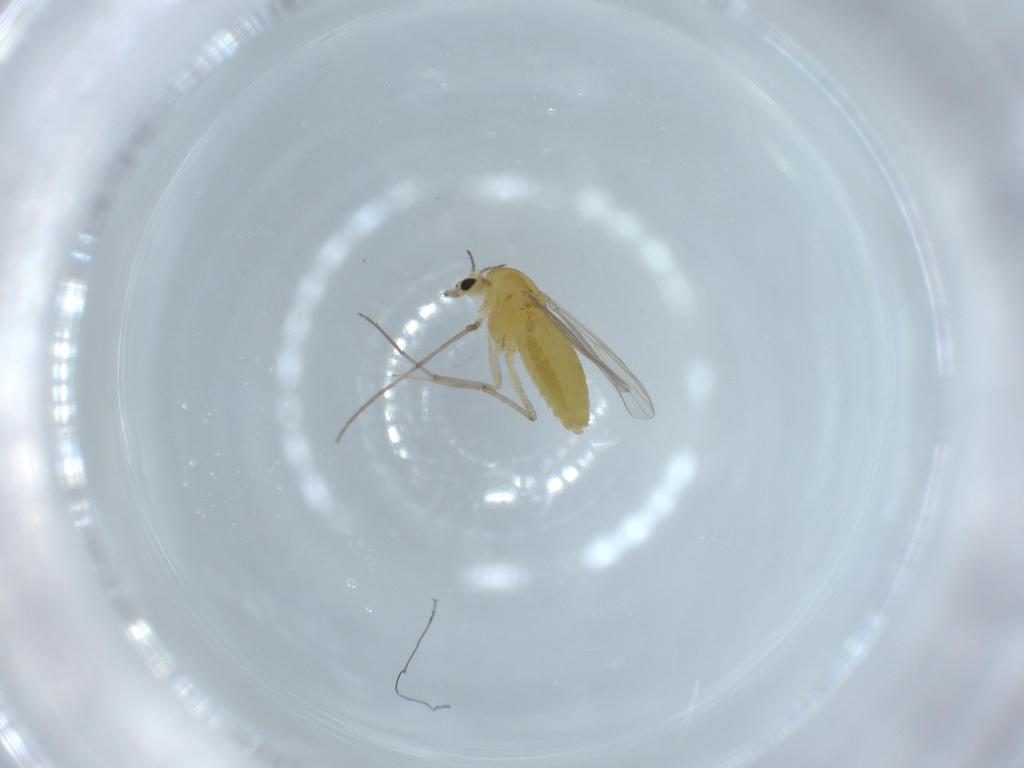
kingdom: Animalia
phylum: Arthropoda
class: Insecta
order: Diptera
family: Chironomidae
